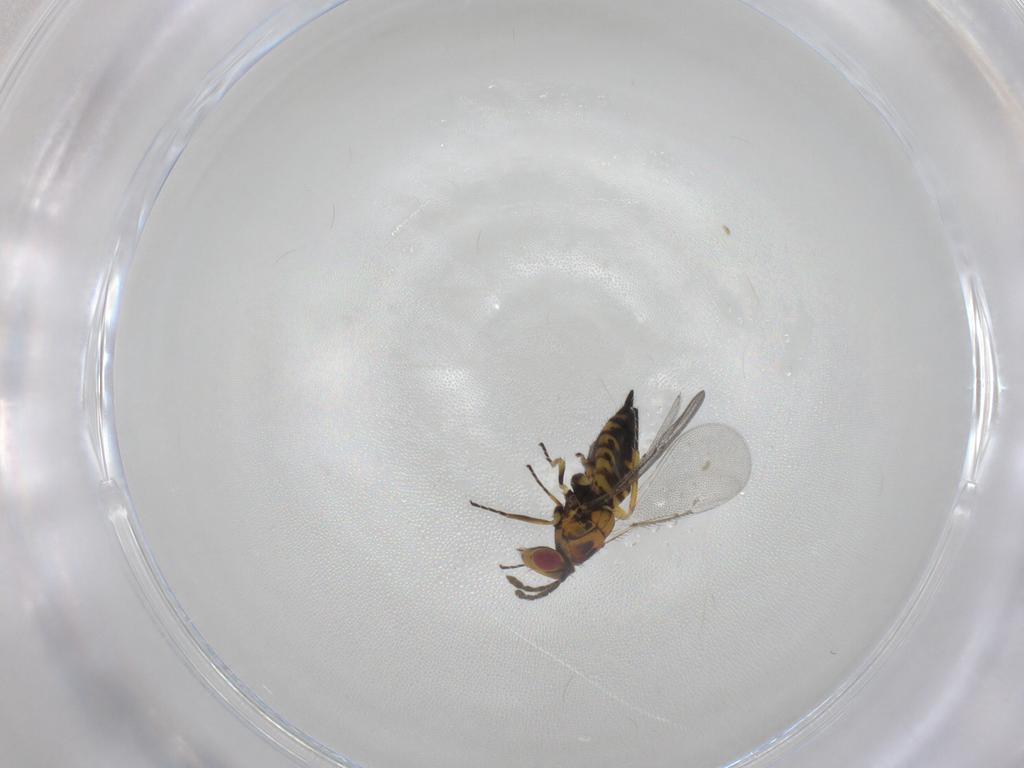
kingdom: Animalia
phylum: Arthropoda
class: Insecta
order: Hymenoptera
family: Eulophidae
